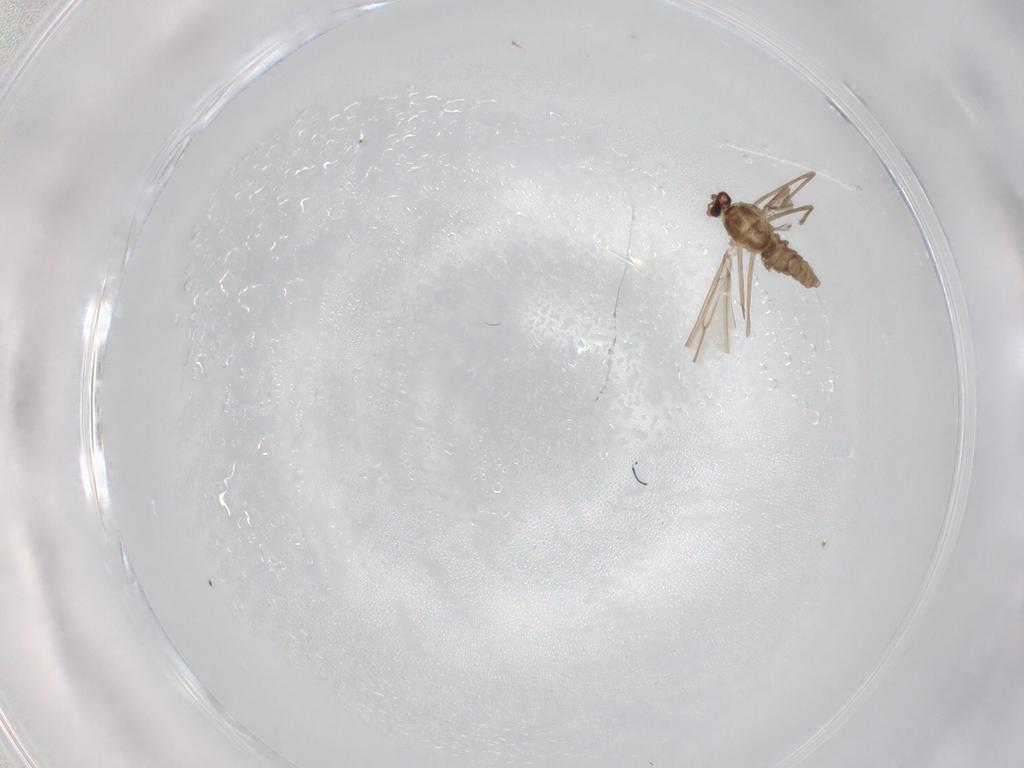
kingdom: Animalia
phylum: Arthropoda
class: Insecta
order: Diptera
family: Cecidomyiidae
